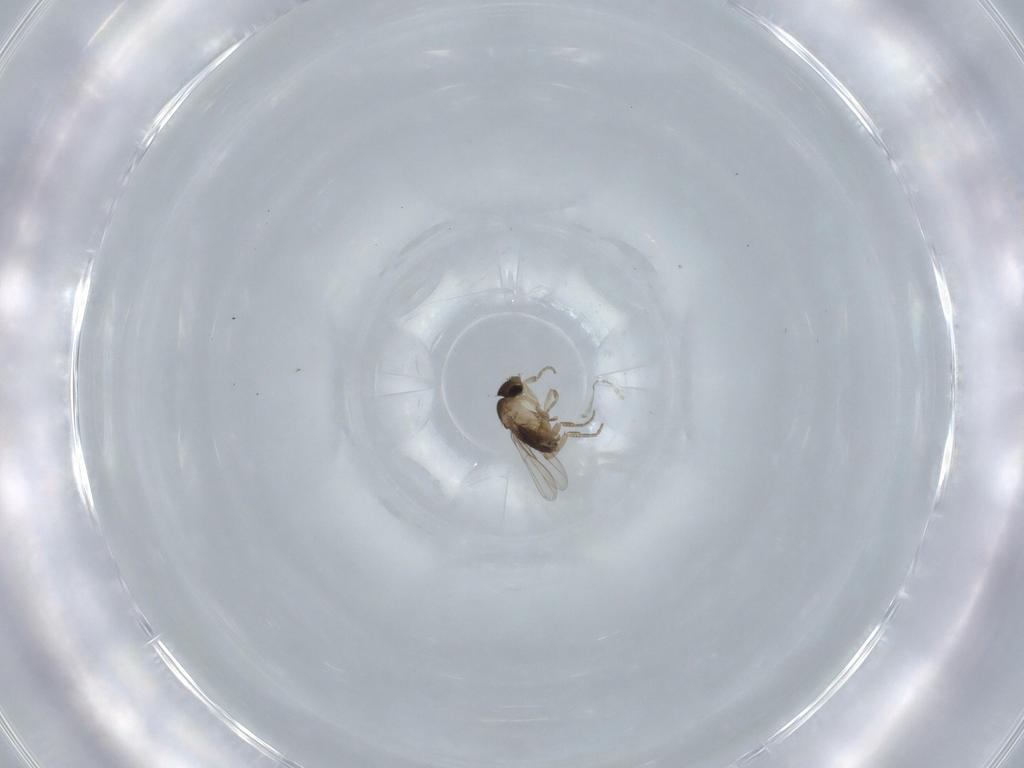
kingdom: Animalia
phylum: Arthropoda
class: Insecta
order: Diptera
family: Phoridae
